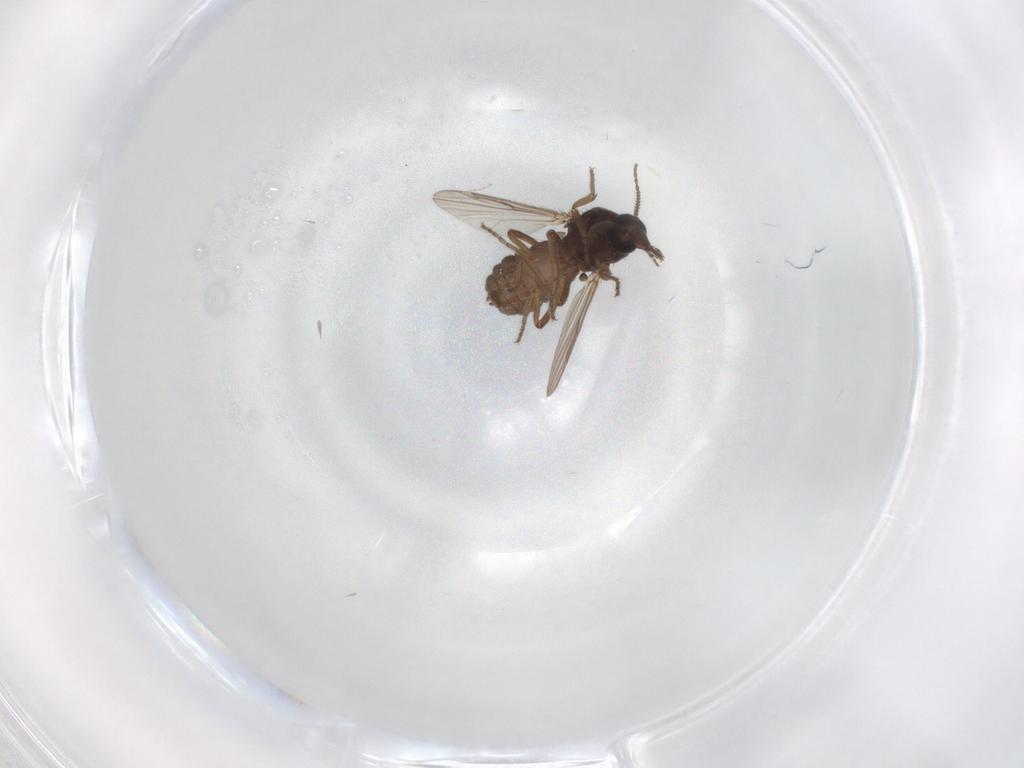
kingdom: Animalia
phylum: Arthropoda
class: Insecta
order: Diptera
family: Ceratopogonidae
